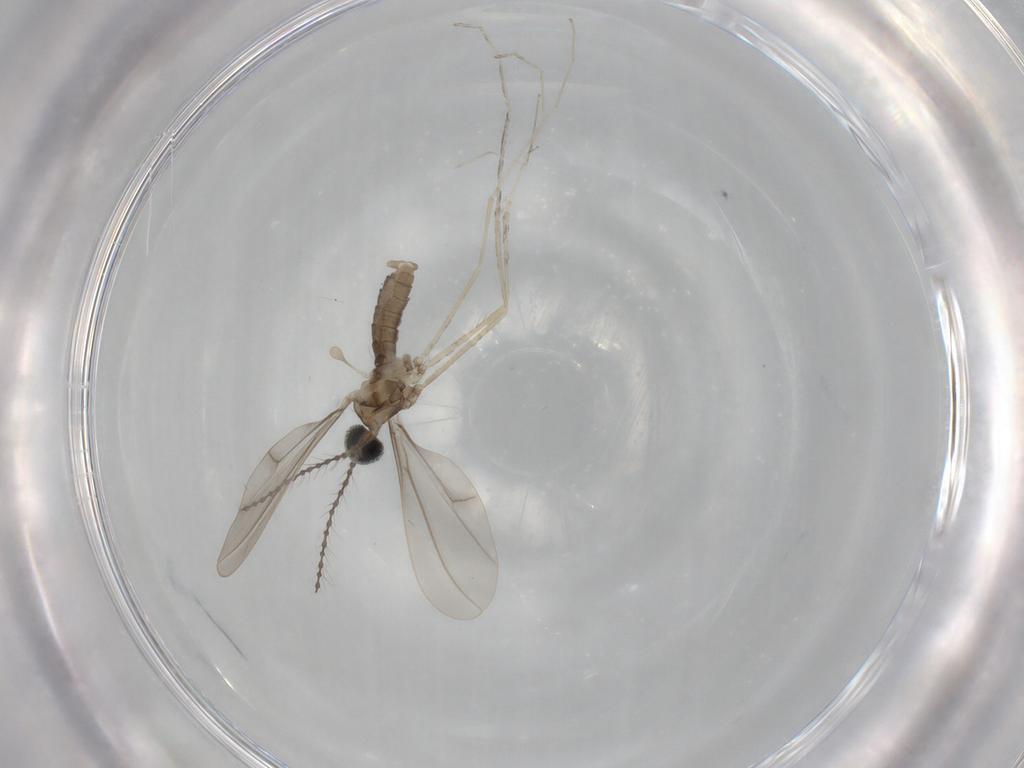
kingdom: Animalia
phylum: Arthropoda
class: Insecta
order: Diptera
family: Cecidomyiidae
